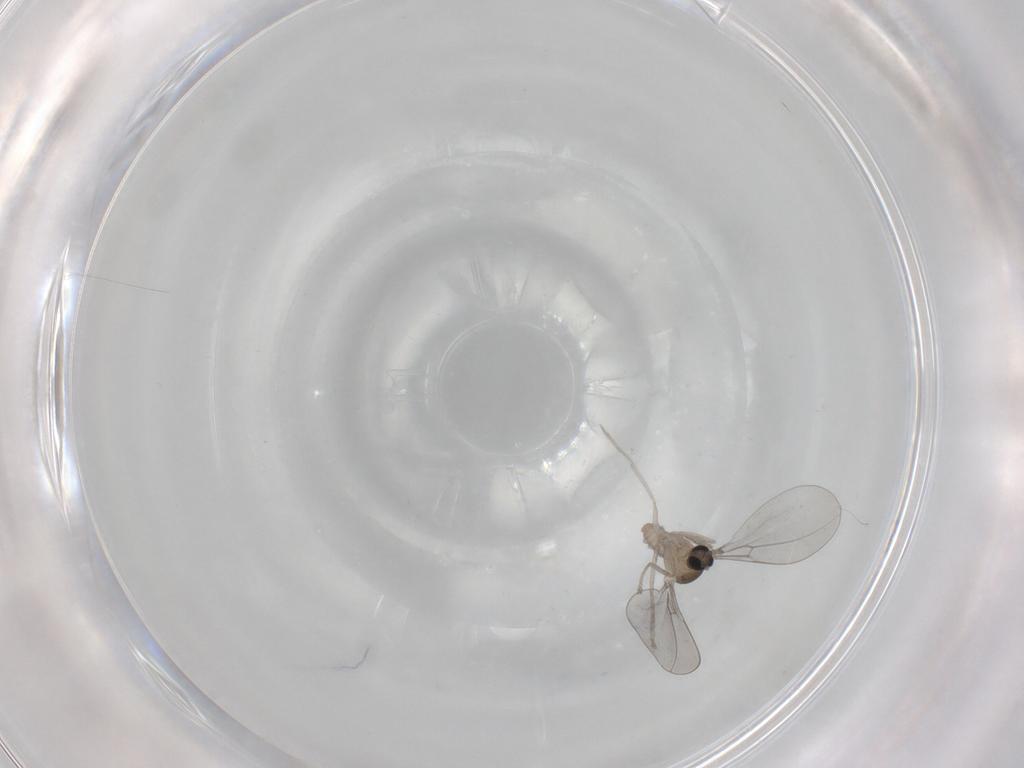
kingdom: Animalia
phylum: Arthropoda
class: Insecta
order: Diptera
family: Cecidomyiidae
